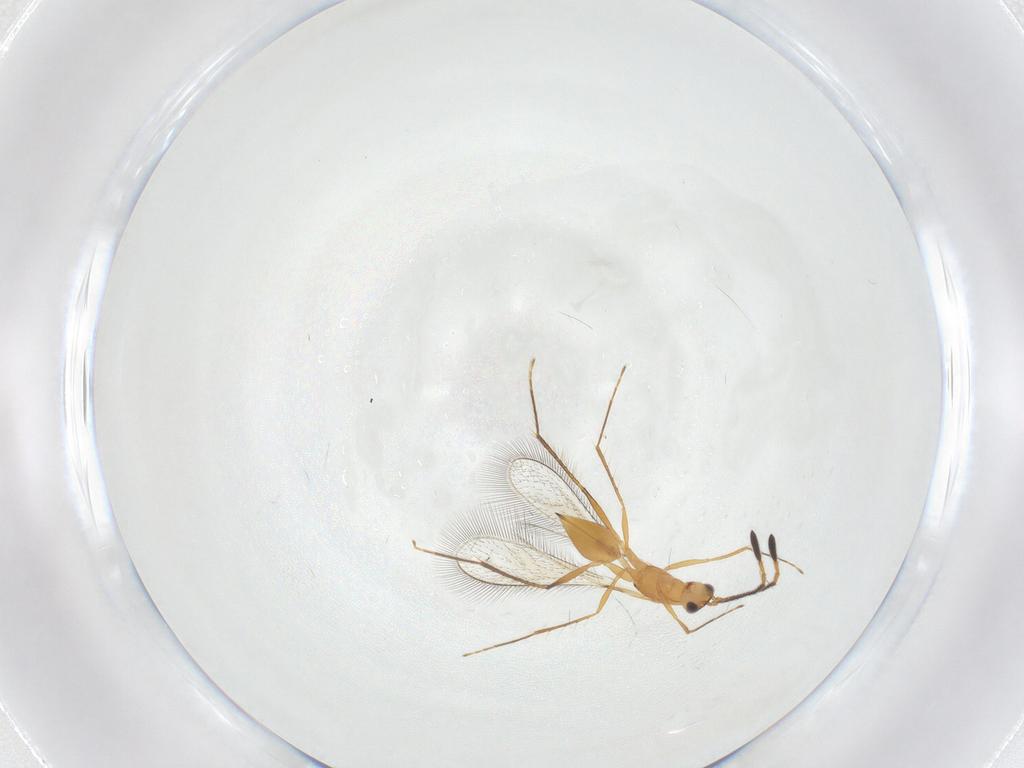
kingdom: Animalia
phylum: Arthropoda
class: Insecta
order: Hymenoptera
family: Mymaridae
